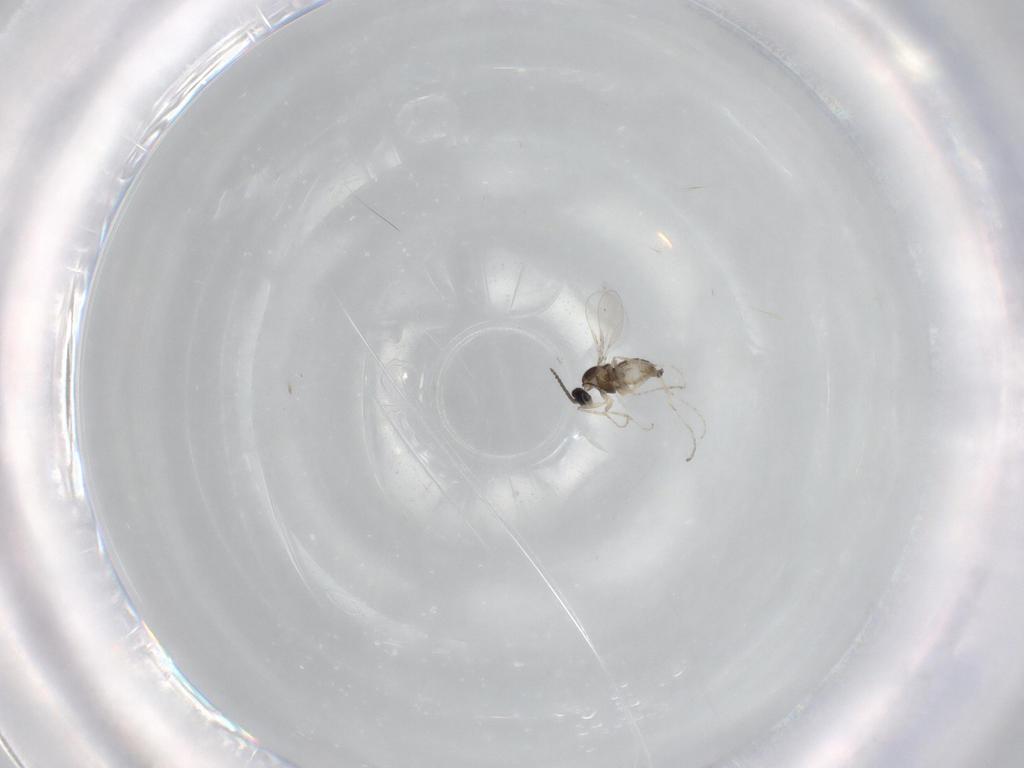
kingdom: Animalia
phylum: Arthropoda
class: Insecta
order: Diptera
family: Cecidomyiidae
